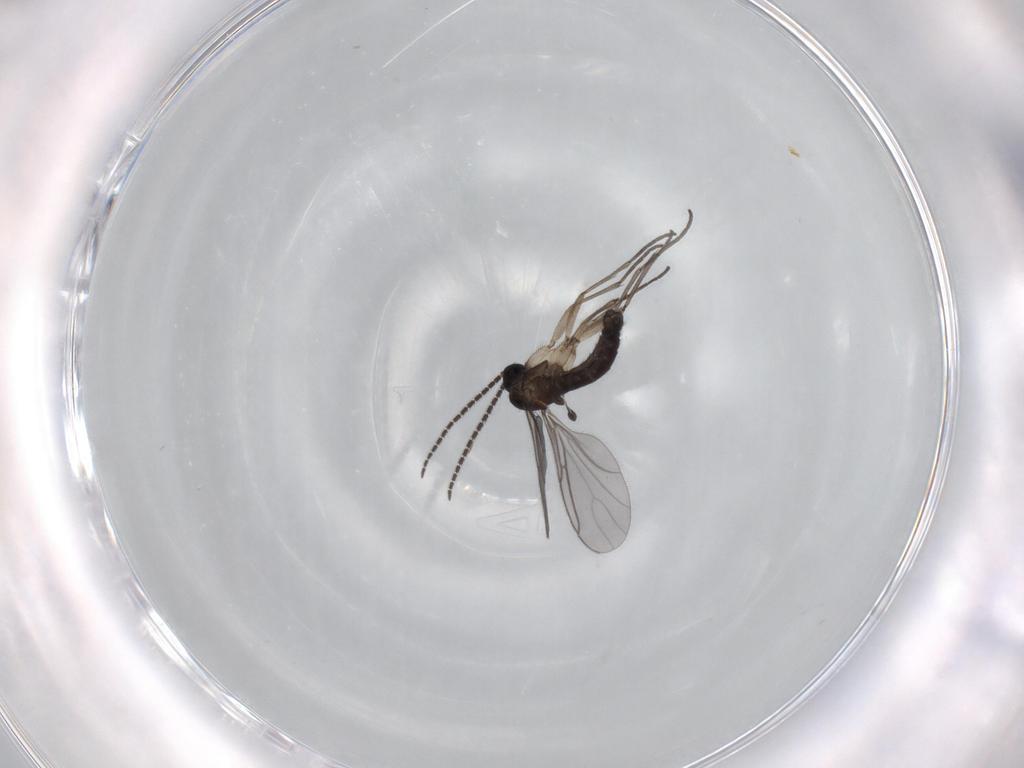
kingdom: Animalia
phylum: Arthropoda
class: Insecta
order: Diptera
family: Sciaridae
